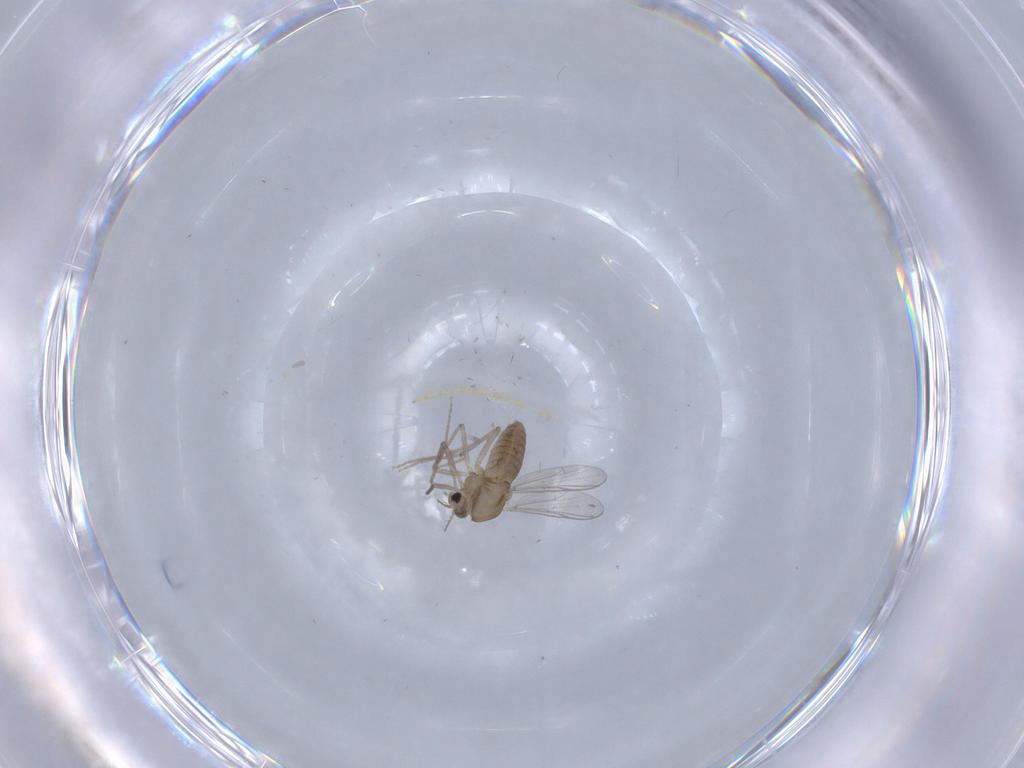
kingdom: Animalia
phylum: Arthropoda
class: Insecta
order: Diptera
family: Chironomidae
